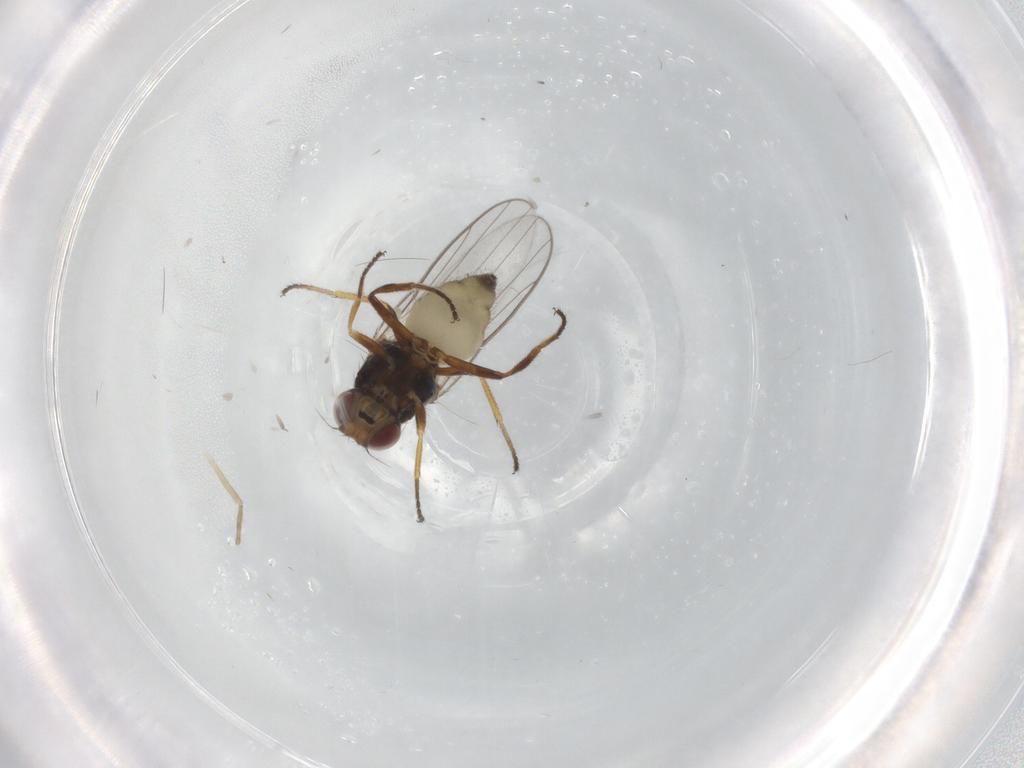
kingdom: Animalia
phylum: Arthropoda
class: Insecta
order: Diptera
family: Chloropidae
